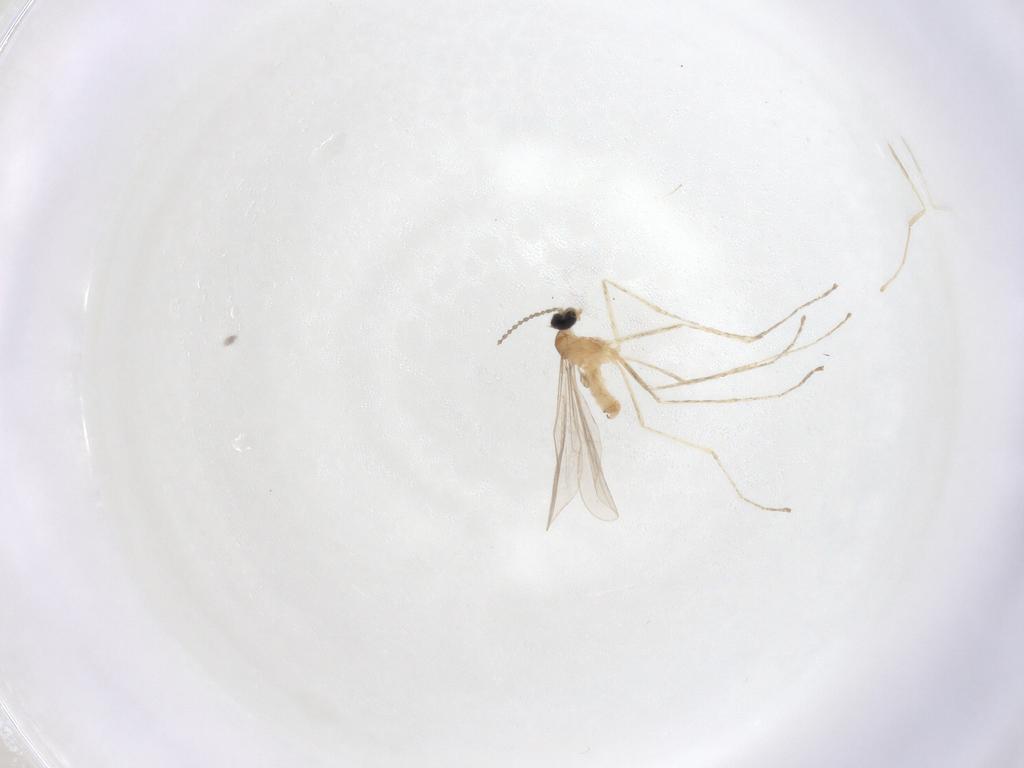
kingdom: Animalia
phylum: Arthropoda
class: Insecta
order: Diptera
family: Cecidomyiidae
